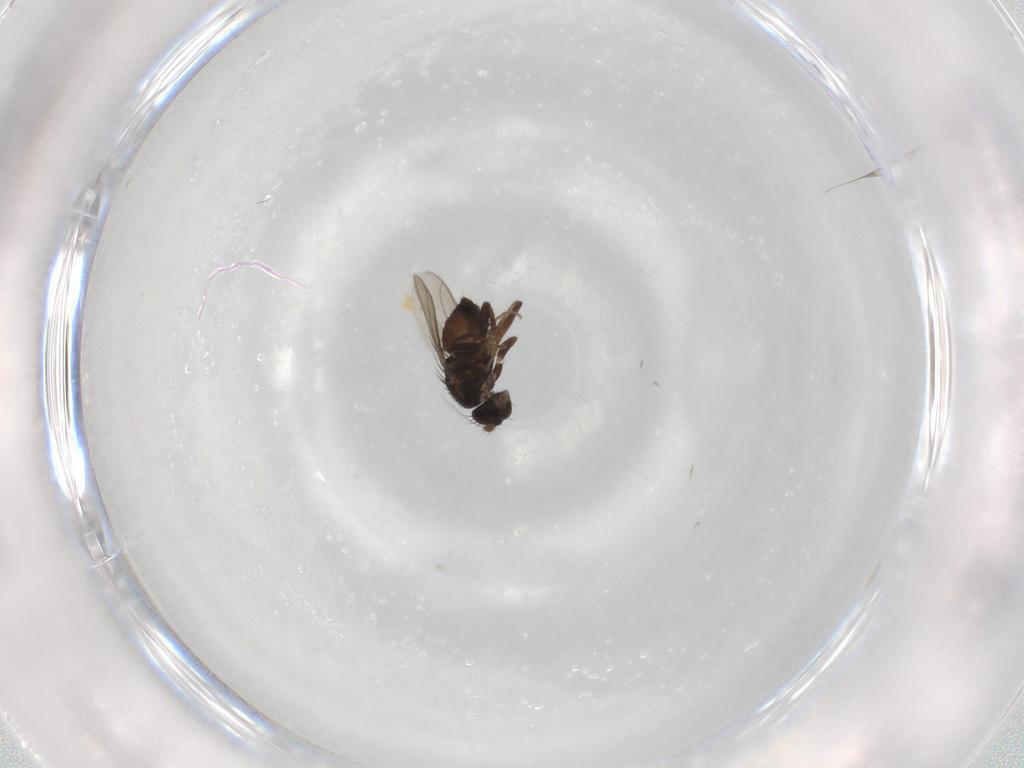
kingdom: Animalia
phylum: Arthropoda
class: Insecta
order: Diptera
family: Sphaeroceridae
